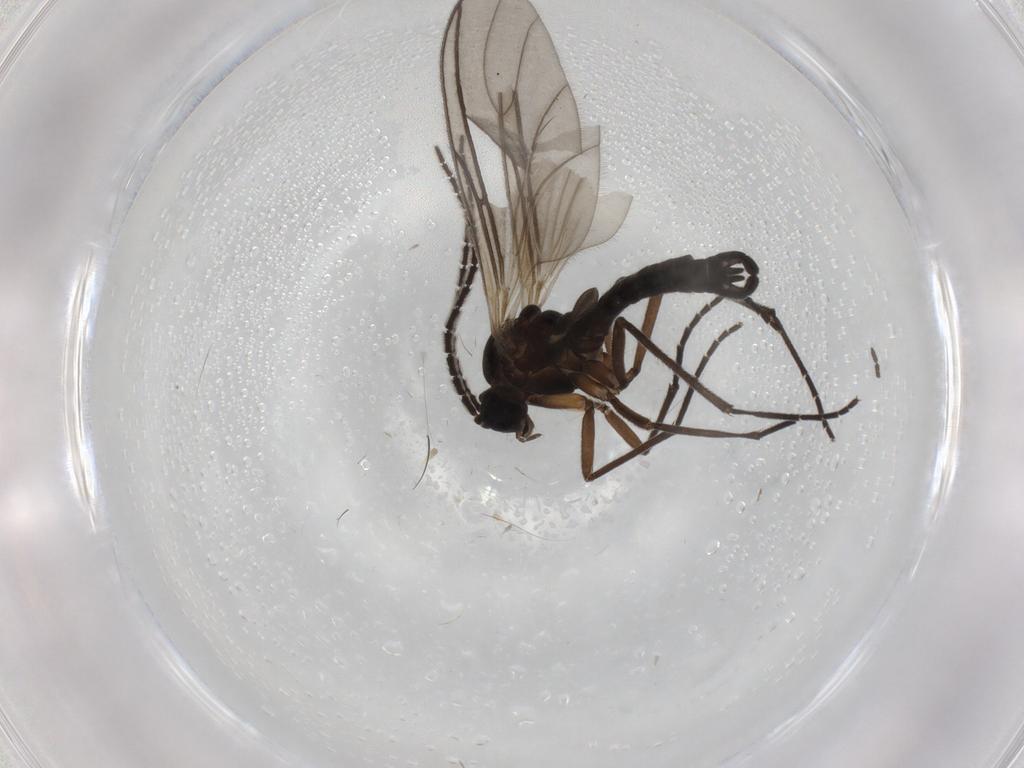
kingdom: Animalia
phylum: Arthropoda
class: Insecta
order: Diptera
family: Sciaridae
